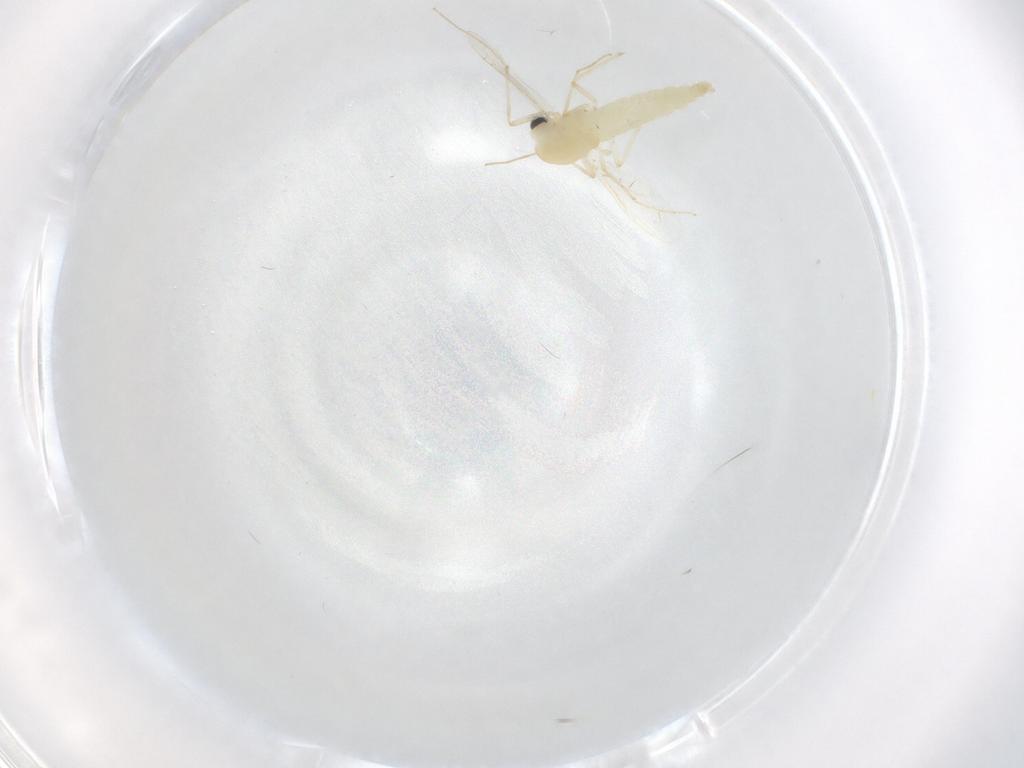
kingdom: Animalia
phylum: Arthropoda
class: Insecta
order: Diptera
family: Chironomidae
